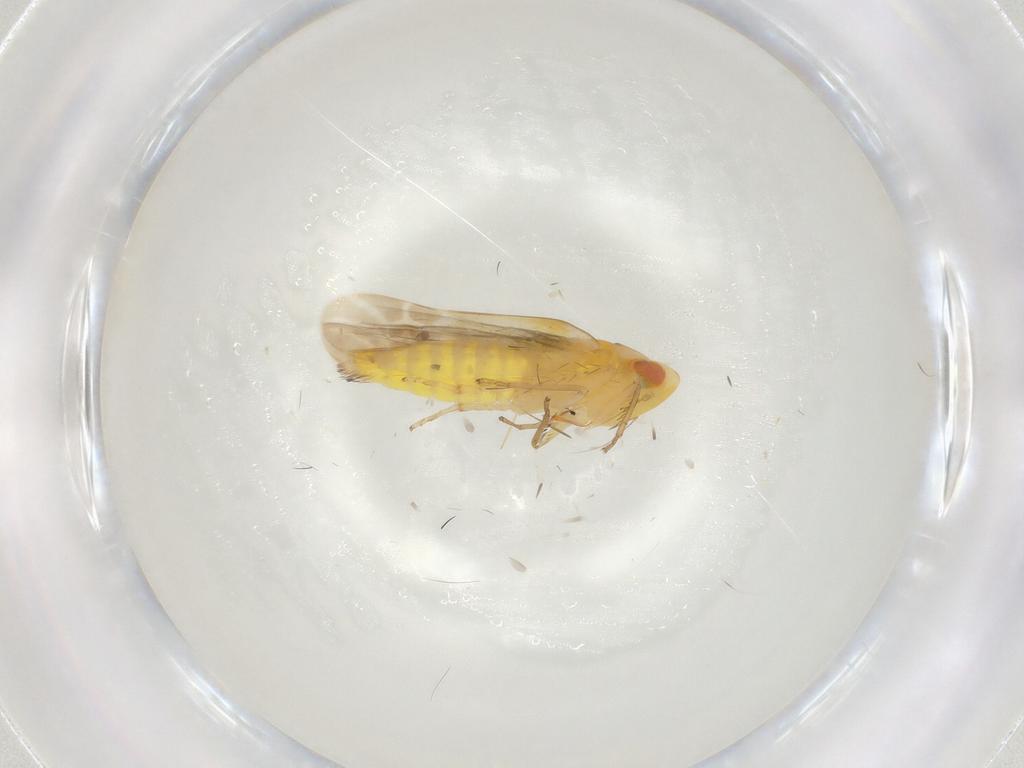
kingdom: Animalia
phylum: Arthropoda
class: Insecta
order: Hemiptera
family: Cicadellidae
